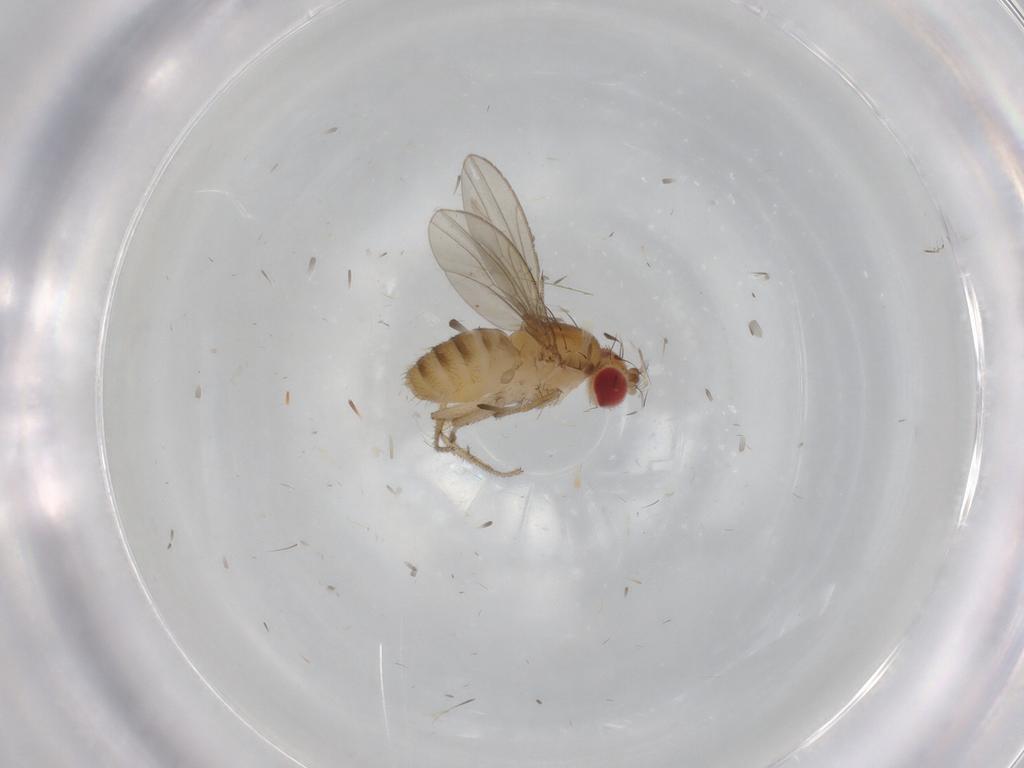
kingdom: Animalia
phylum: Arthropoda
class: Insecta
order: Diptera
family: Drosophilidae
